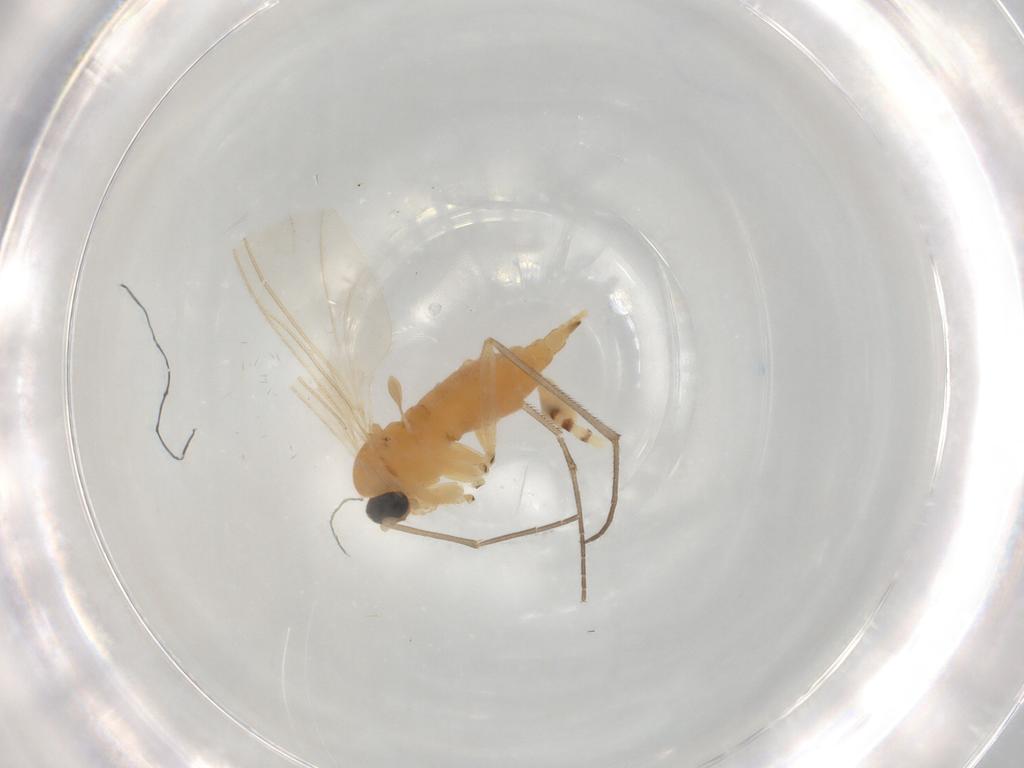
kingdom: Animalia
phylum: Arthropoda
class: Insecta
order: Diptera
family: Sciaridae
